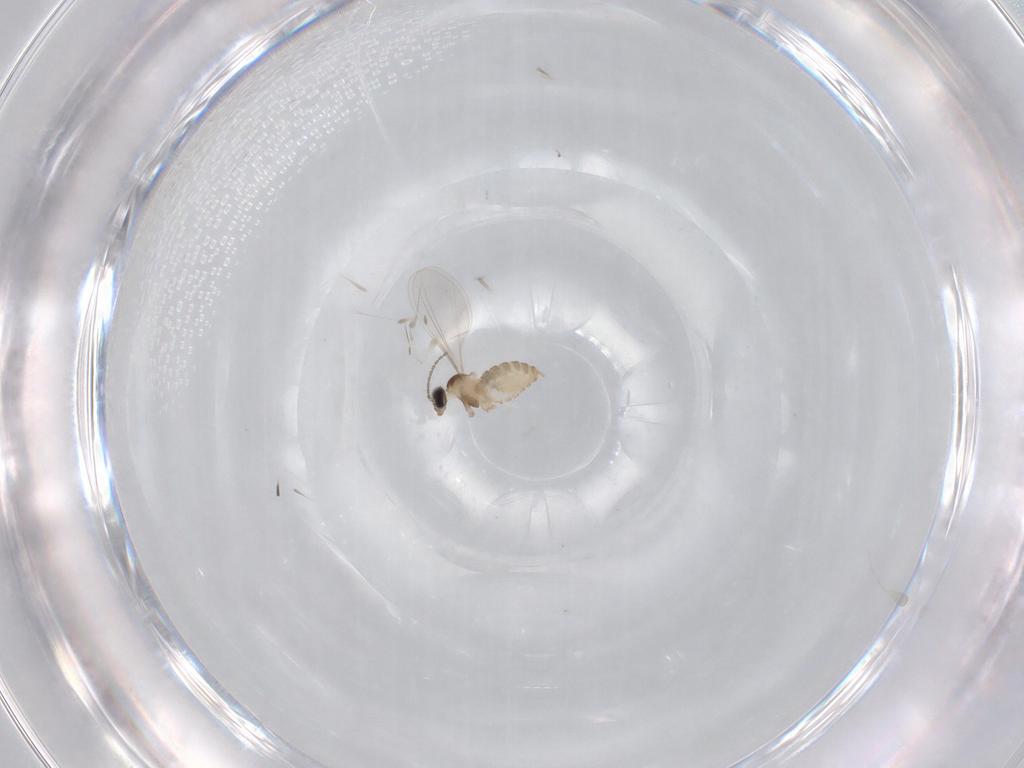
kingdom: Animalia
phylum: Arthropoda
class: Insecta
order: Diptera
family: Cecidomyiidae
